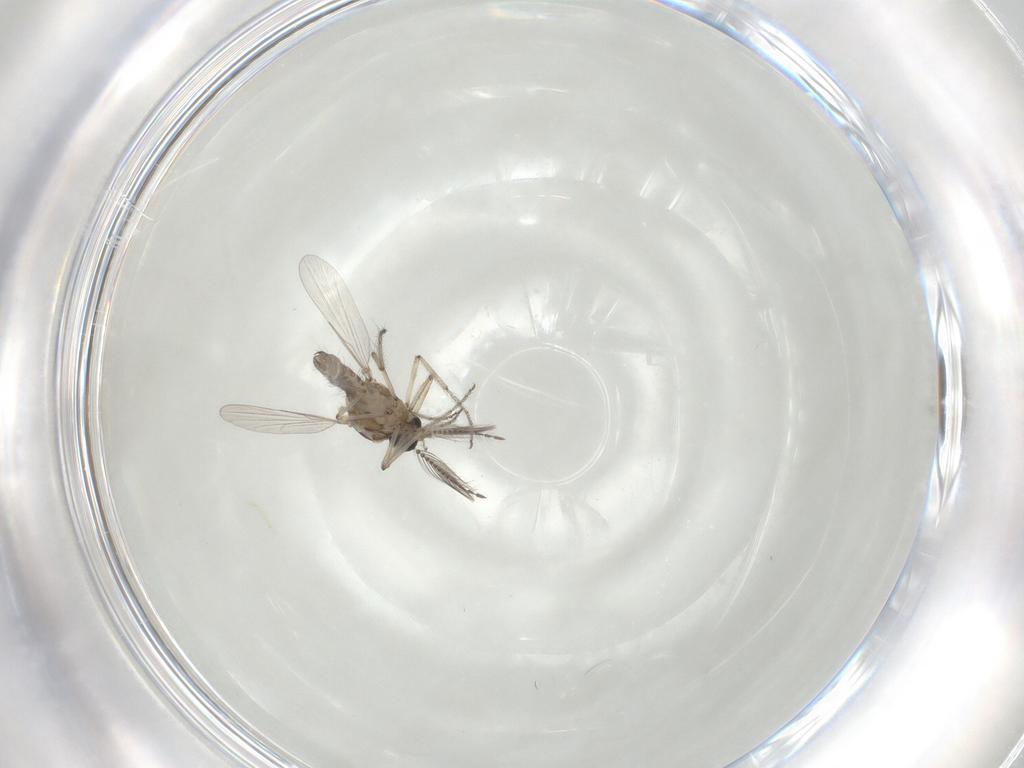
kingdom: Animalia
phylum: Arthropoda
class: Insecta
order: Diptera
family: Ceratopogonidae
